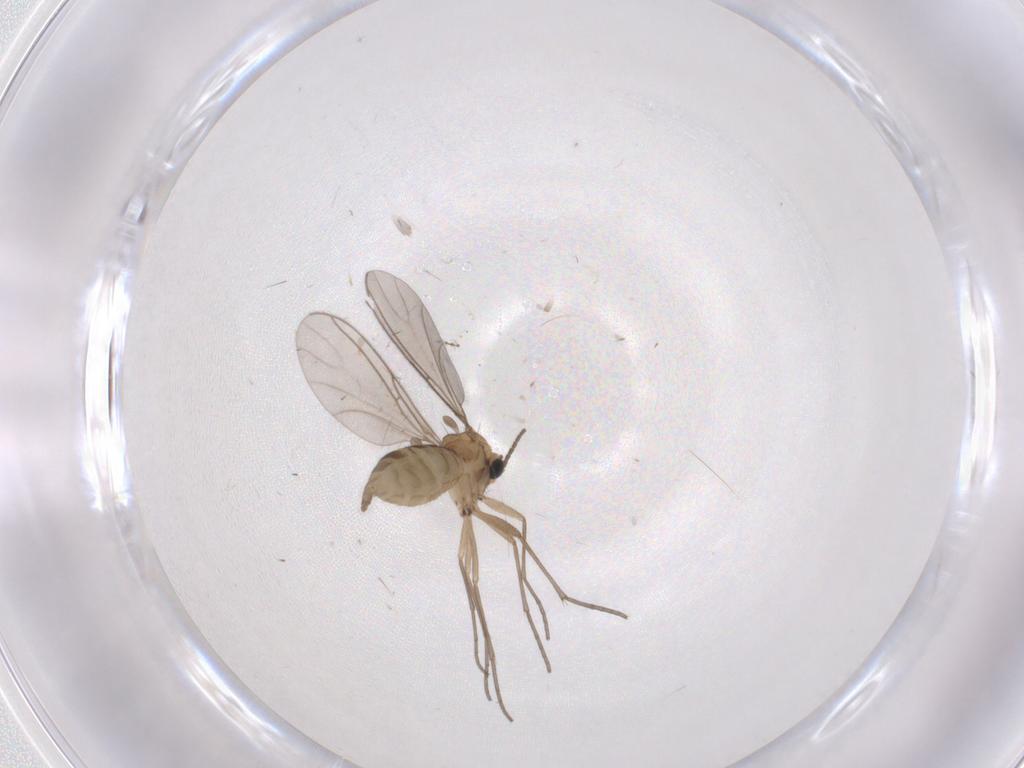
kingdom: Animalia
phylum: Arthropoda
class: Insecta
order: Diptera
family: Sciaridae
